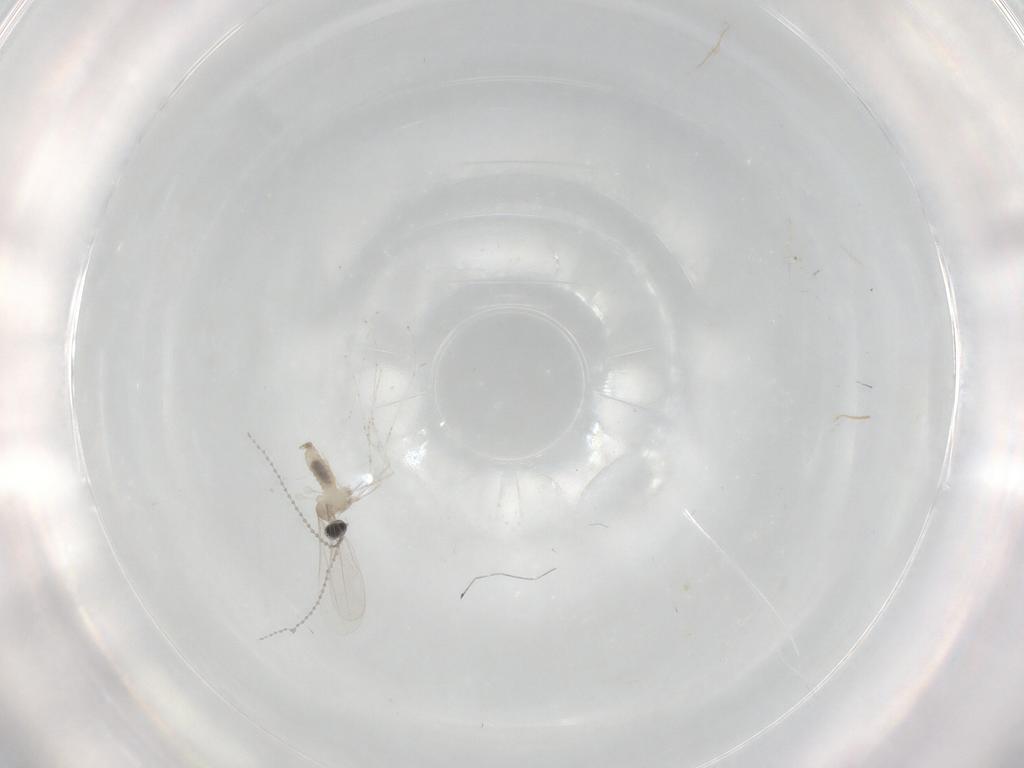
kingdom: Animalia
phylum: Arthropoda
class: Insecta
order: Diptera
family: Cecidomyiidae
